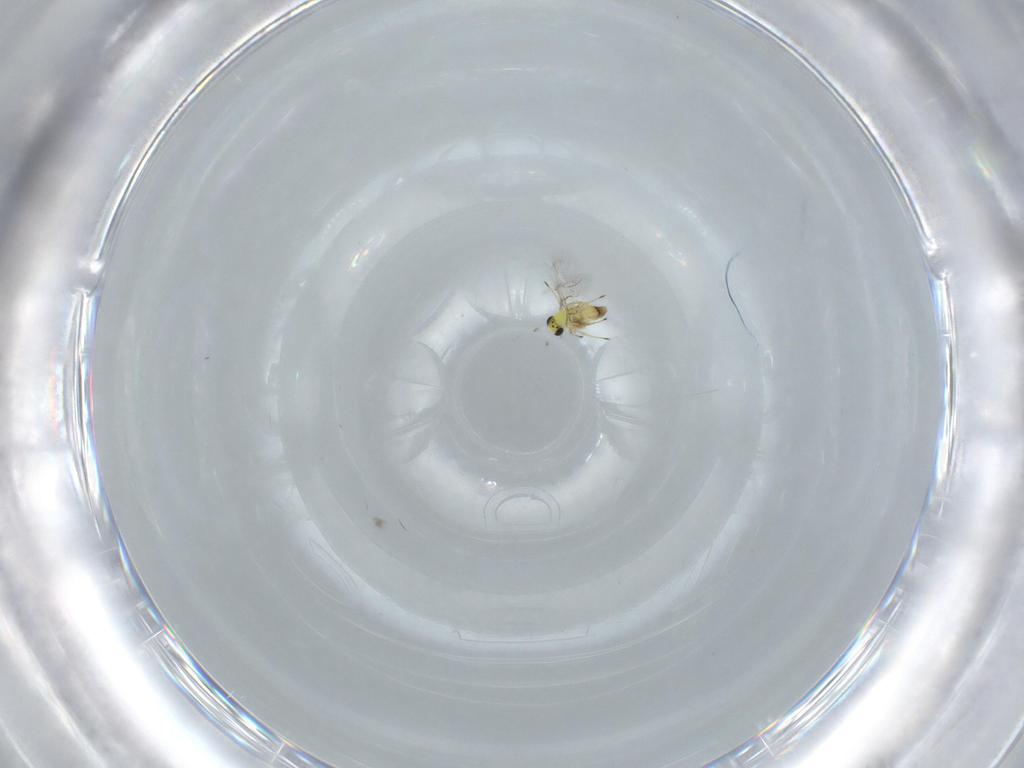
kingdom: Animalia
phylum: Arthropoda
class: Insecta
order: Hymenoptera
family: Trichogrammatidae
